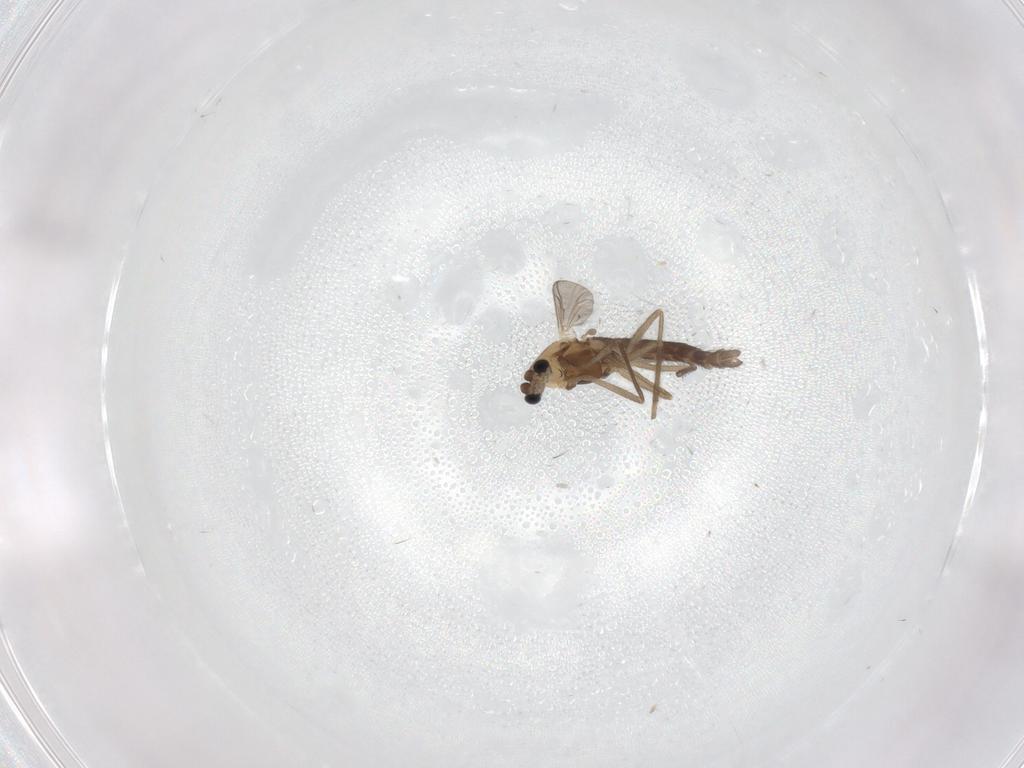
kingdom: Animalia
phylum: Arthropoda
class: Insecta
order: Diptera
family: Chironomidae
